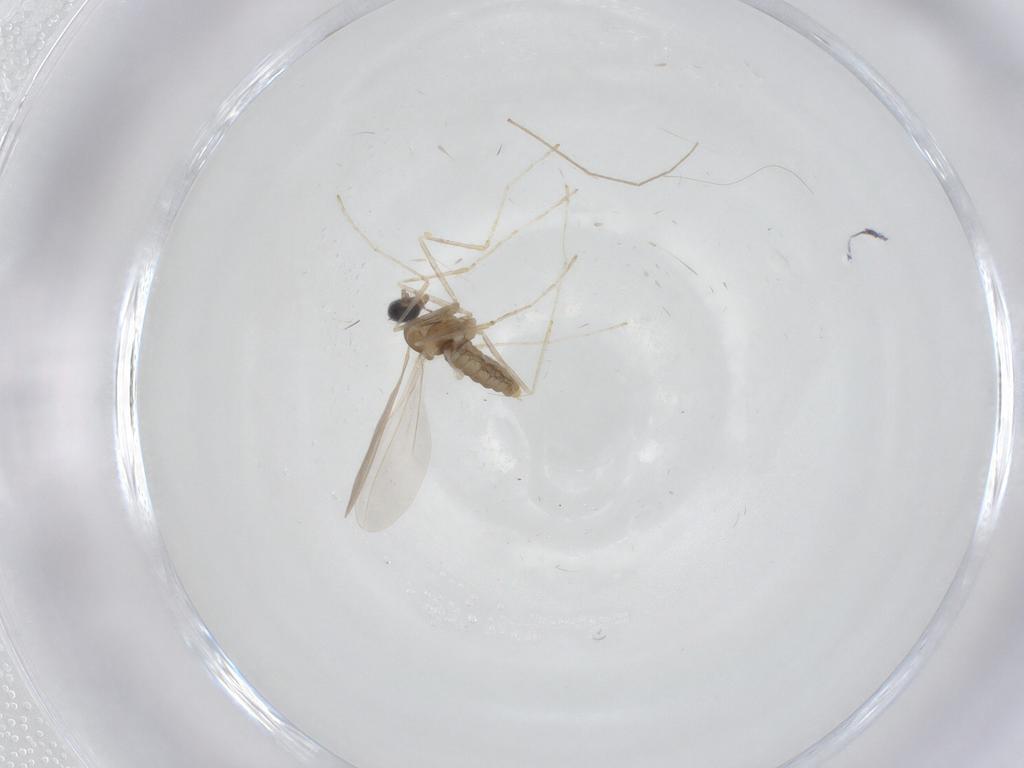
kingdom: Animalia
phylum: Arthropoda
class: Insecta
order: Diptera
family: Cecidomyiidae
